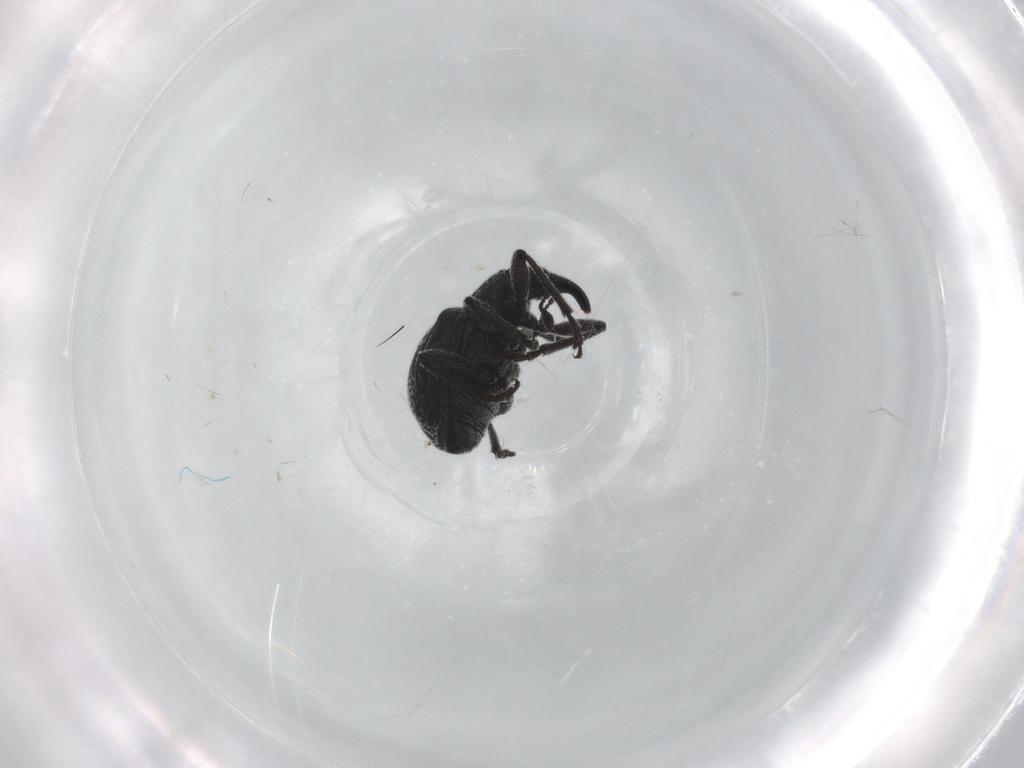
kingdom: Animalia
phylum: Arthropoda
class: Insecta
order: Coleoptera
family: Brentidae
